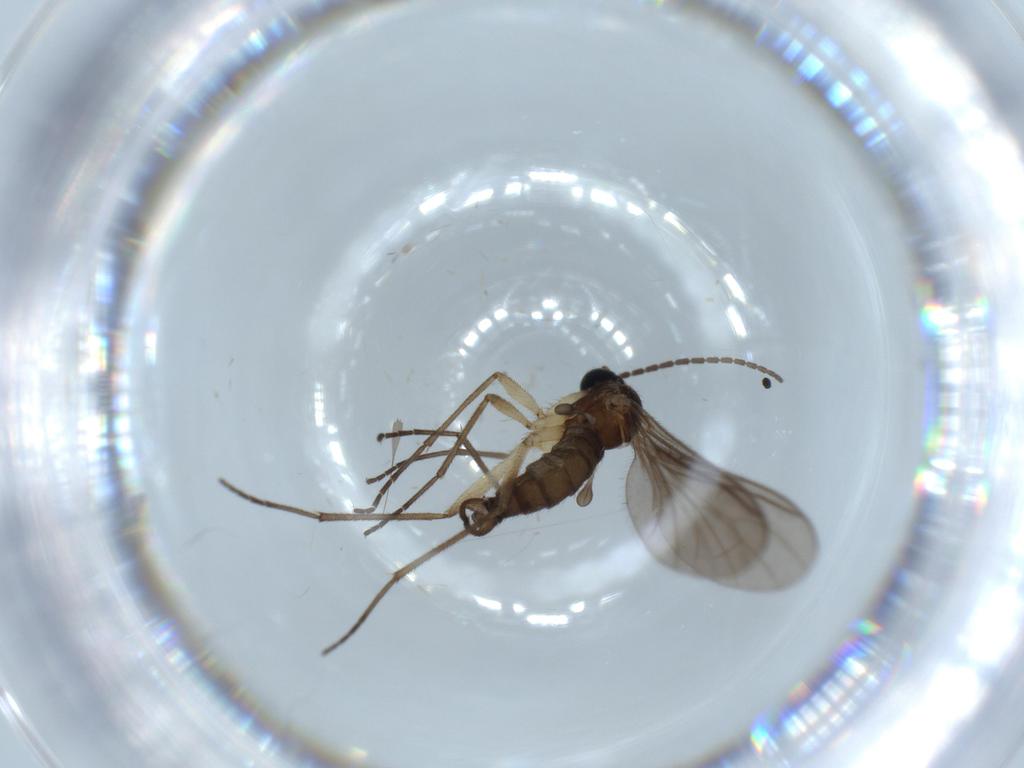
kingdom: Animalia
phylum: Arthropoda
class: Insecta
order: Diptera
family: Sciaridae
